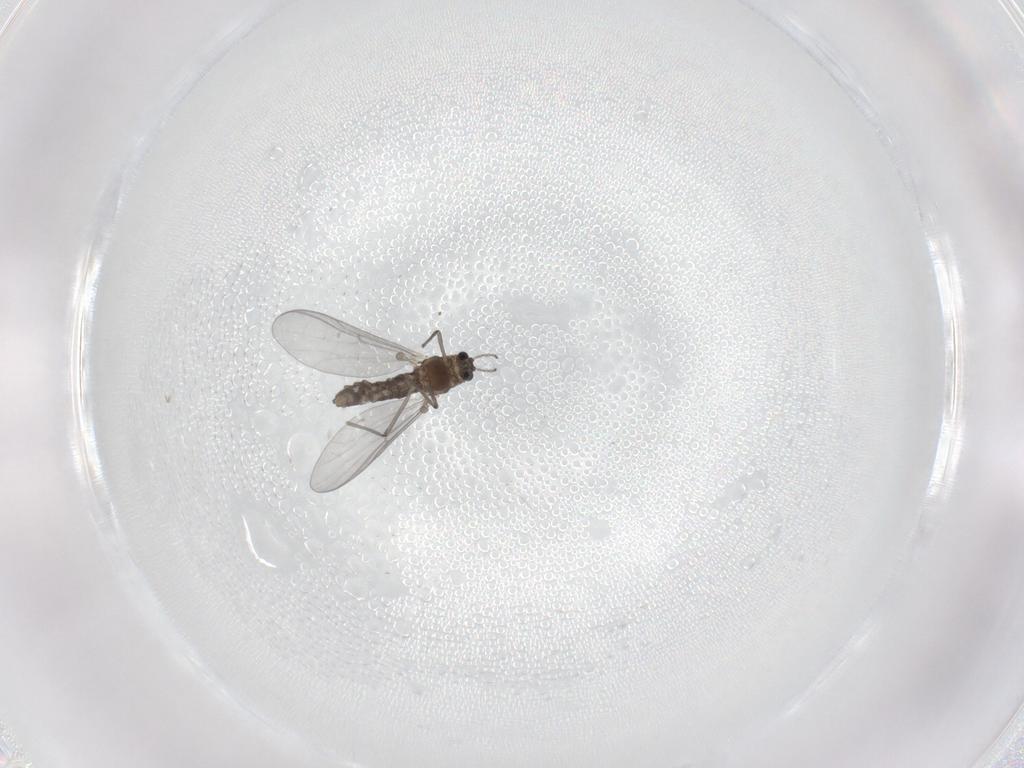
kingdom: Animalia
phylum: Arthropoda
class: Insecta
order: Diptera
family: Chironomidae
